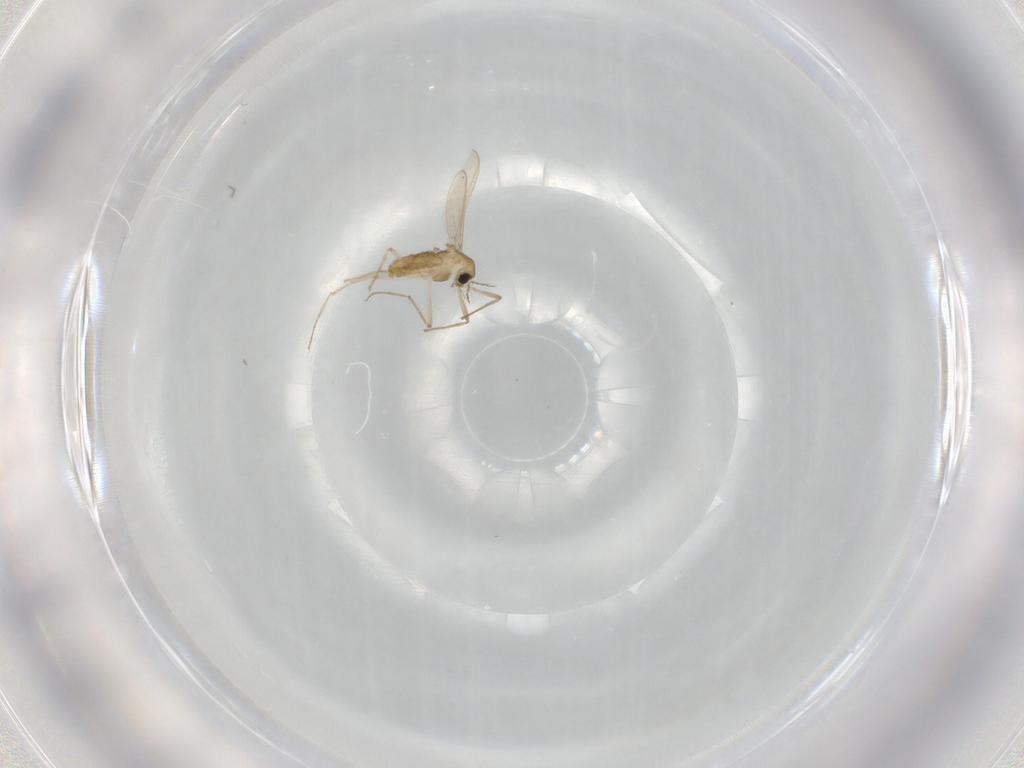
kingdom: Animalia
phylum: Arthropoda
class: Insecta
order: Diptera
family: Chironomidae
